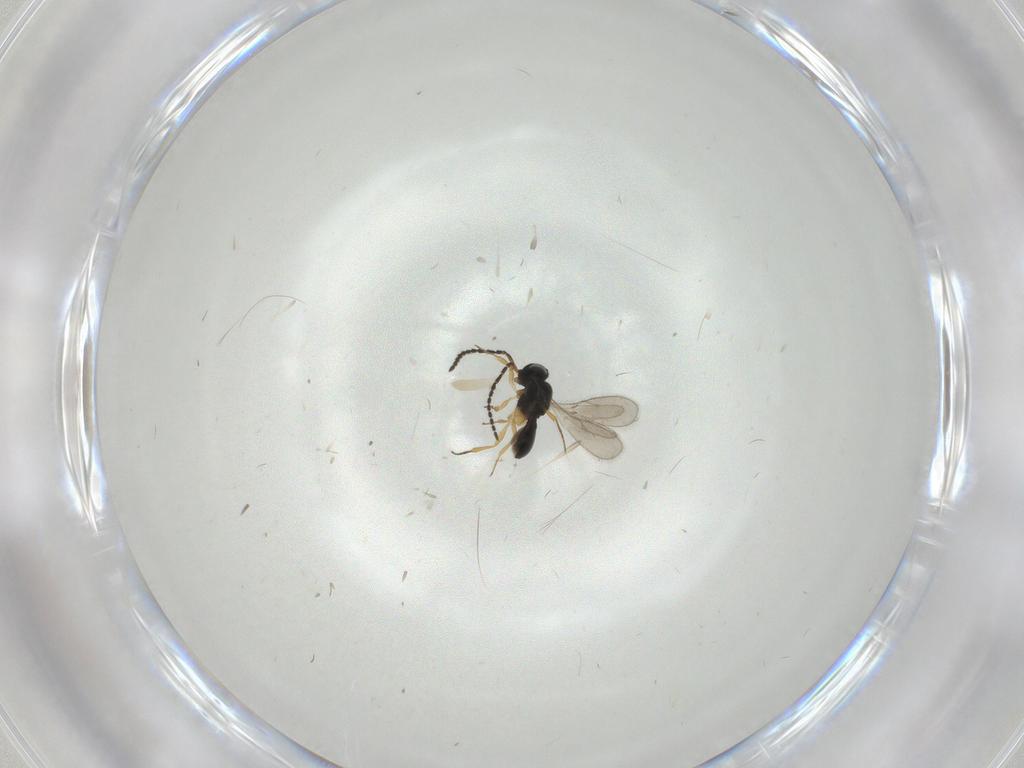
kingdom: Animalia
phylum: Arthropoda
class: Insecta
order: Hymenoptera
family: Scelionidae
